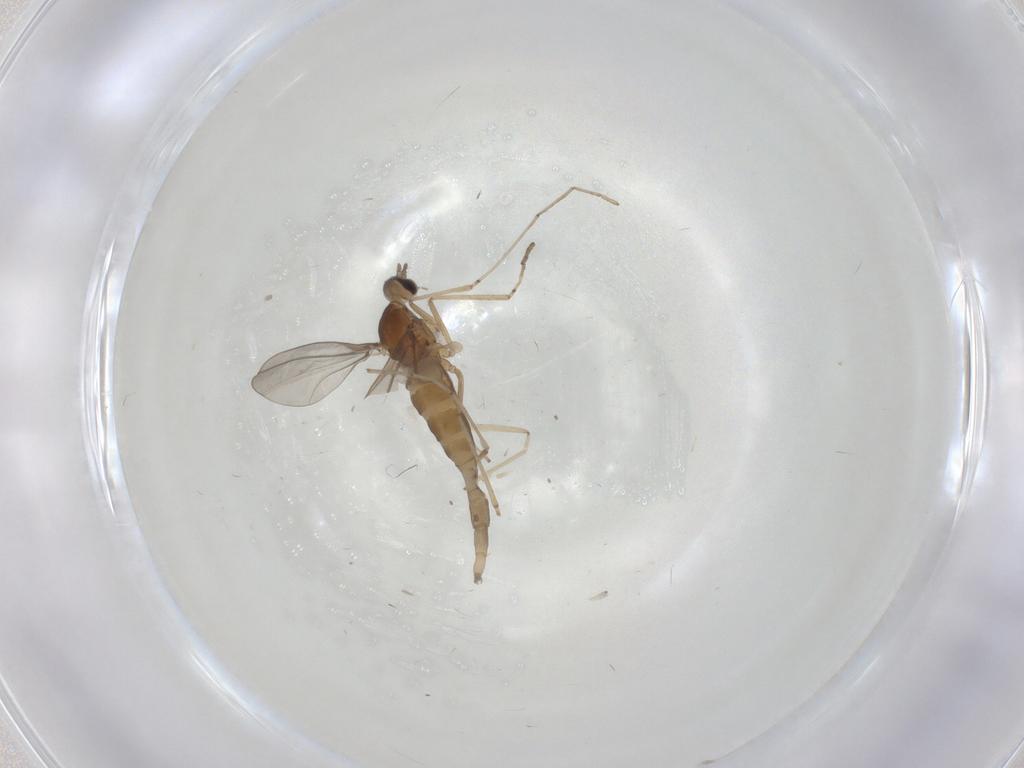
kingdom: Animalia
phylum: Arthropoda
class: Insecta
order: Diptera
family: Cecidomyiidae
